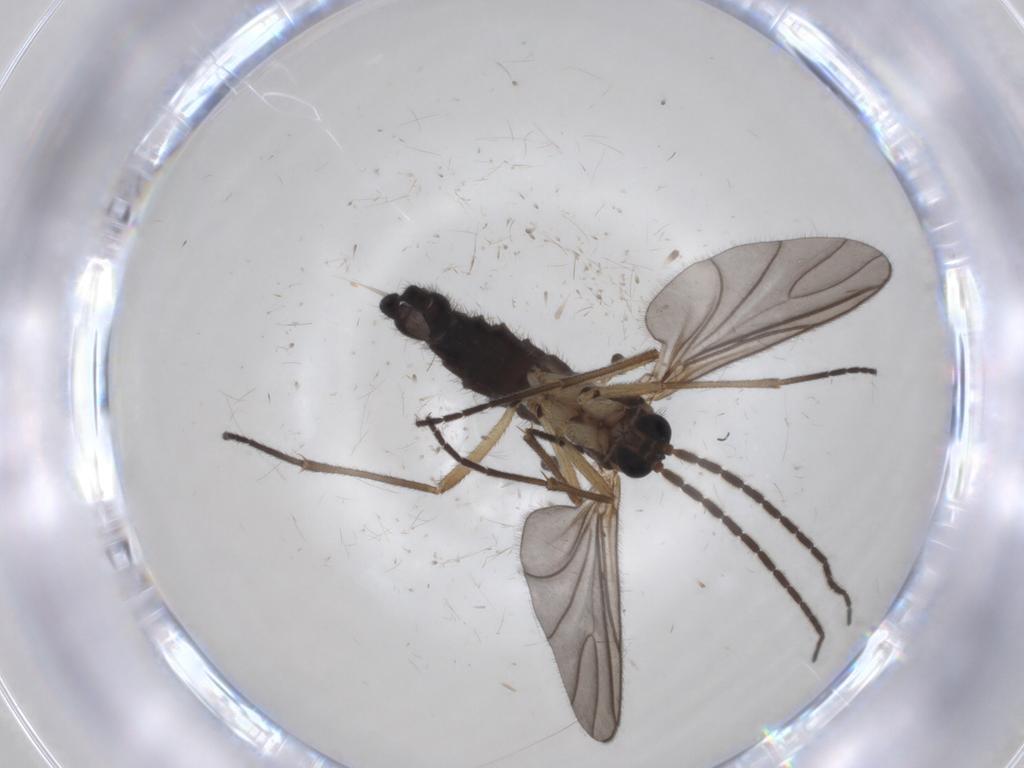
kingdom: Animalia
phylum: Arthropoda
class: Insecta
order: Diptera
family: Sciaridae
